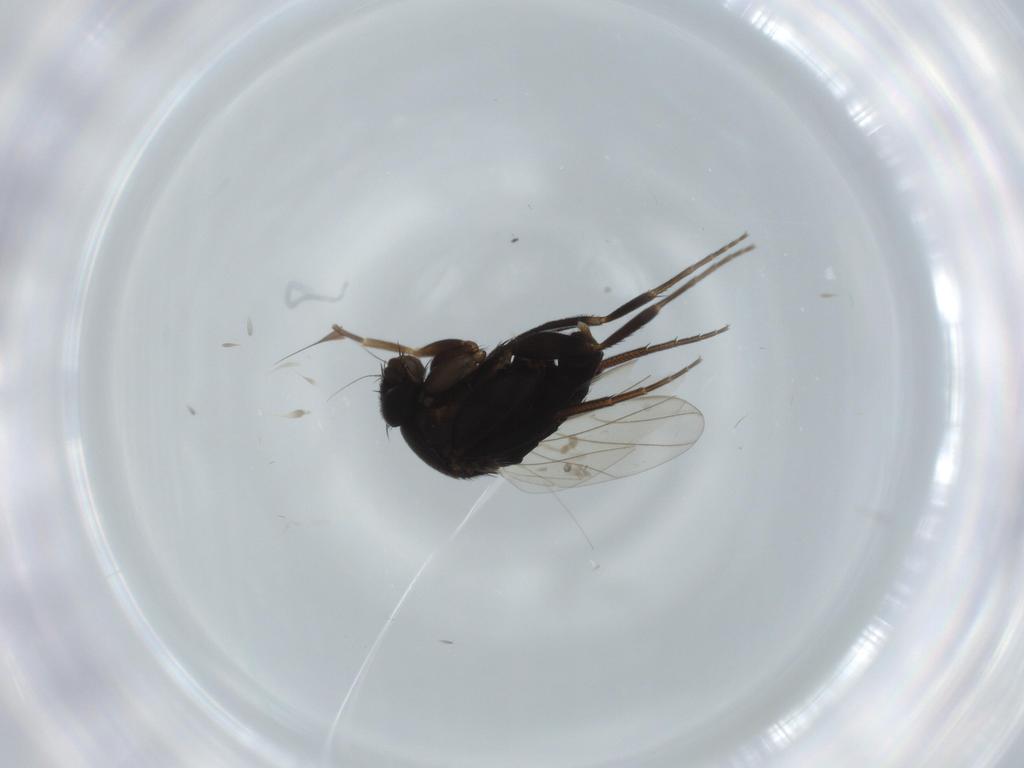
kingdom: Animalia
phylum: Arthropoda
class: Insecta
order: Diptera
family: Phoridae
